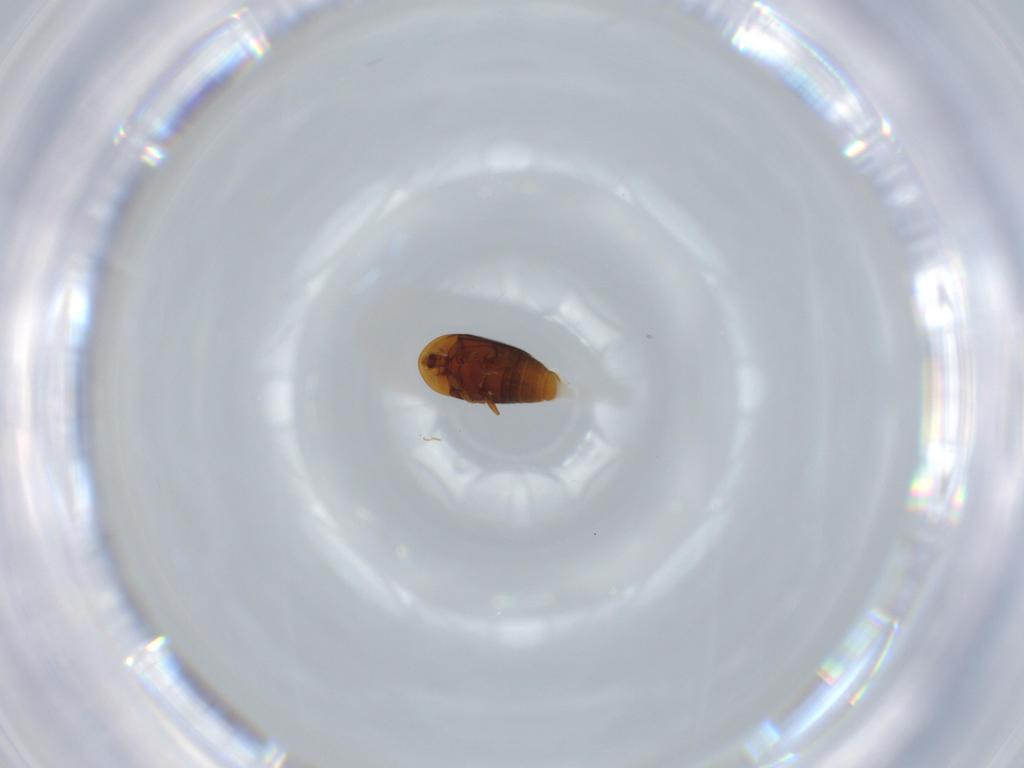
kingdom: Animalia
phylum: Arthropoda
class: Insecta
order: Coleoptera
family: Corylophidae
